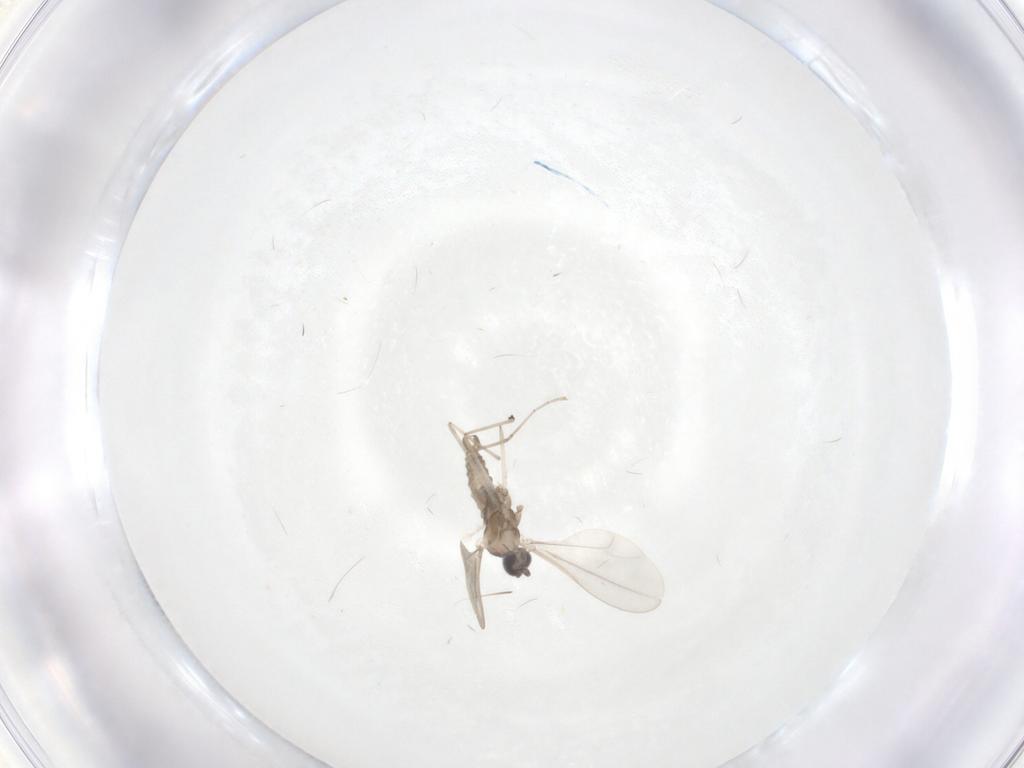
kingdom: Animalia
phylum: Arthropoda
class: Insecta
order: Diptera
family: Cecidomyiidae
